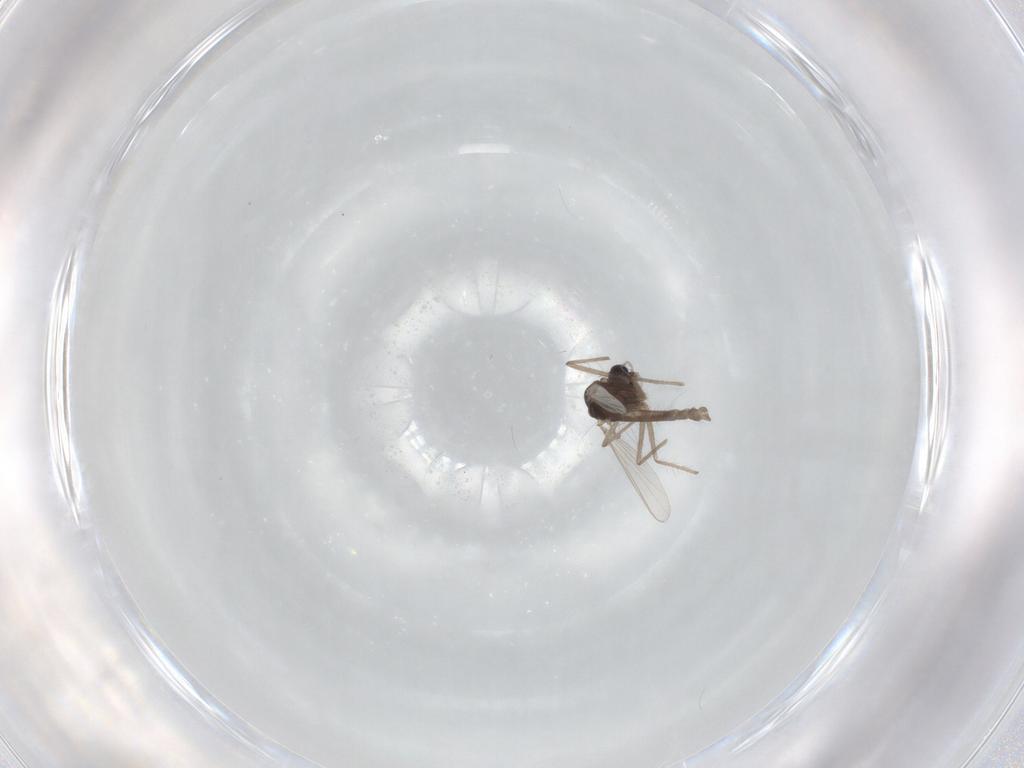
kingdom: Animalia
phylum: Arthropoda
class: Insecta
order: Diptera
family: Chironomidae
